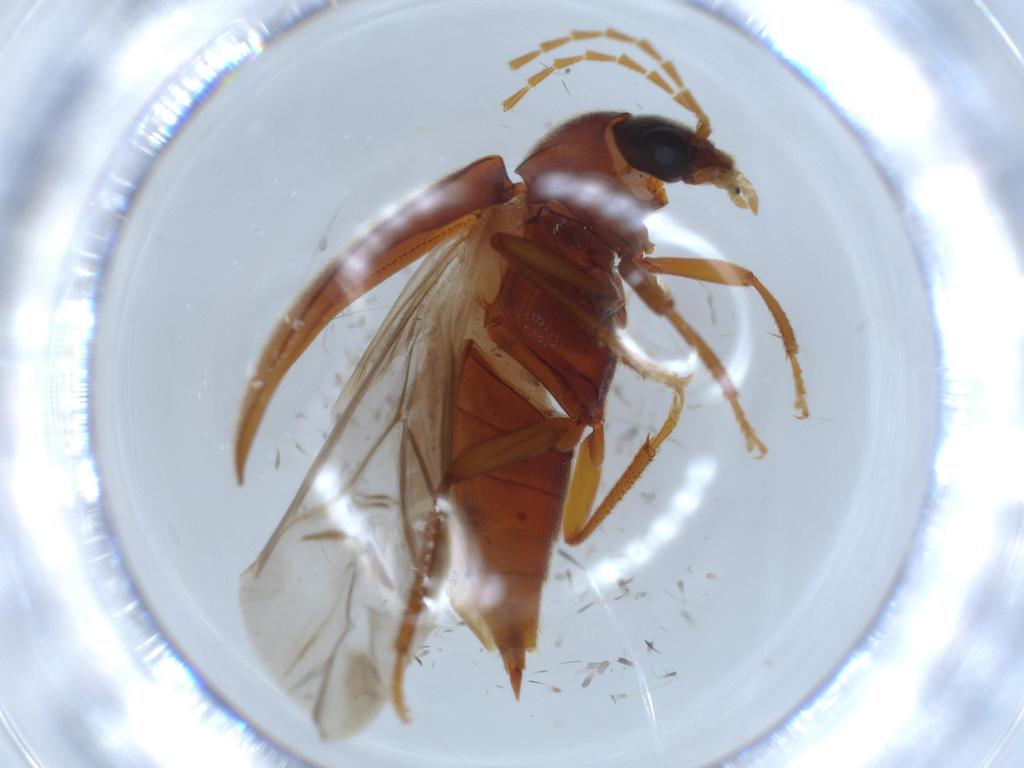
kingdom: Animalia
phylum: Arthropoda
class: Insecta
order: Coleoptera
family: Ptilodactylidae
